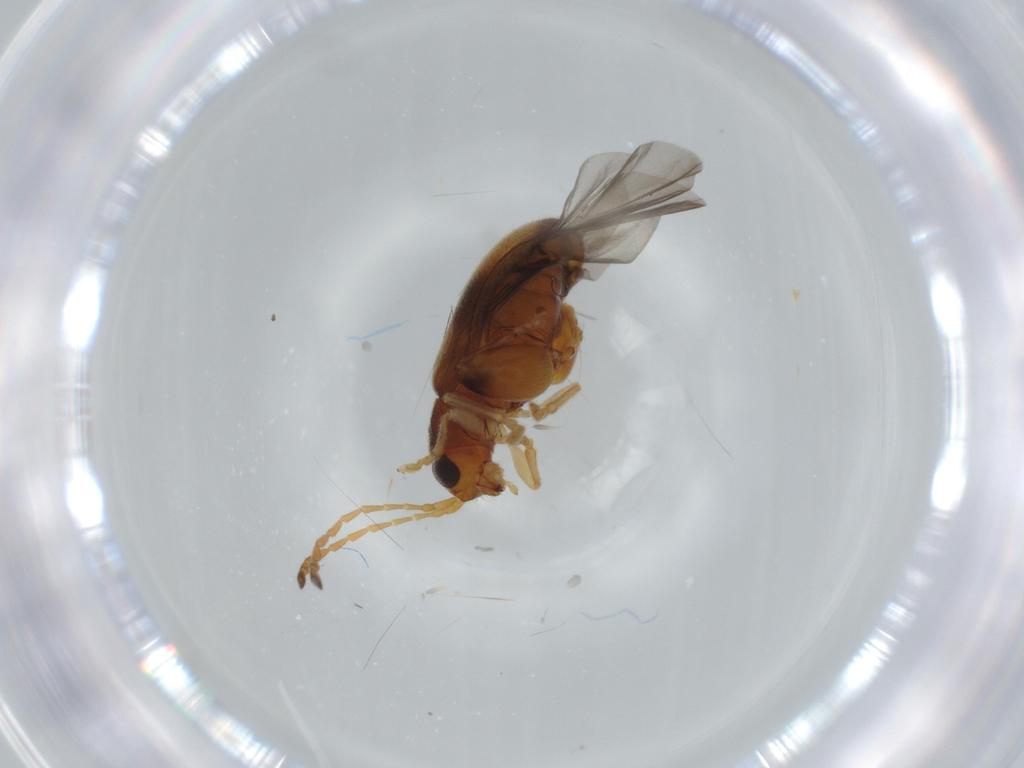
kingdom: Animalia
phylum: Arthropoda
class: Insecta
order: Coleoptera
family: Chrysomelidae
